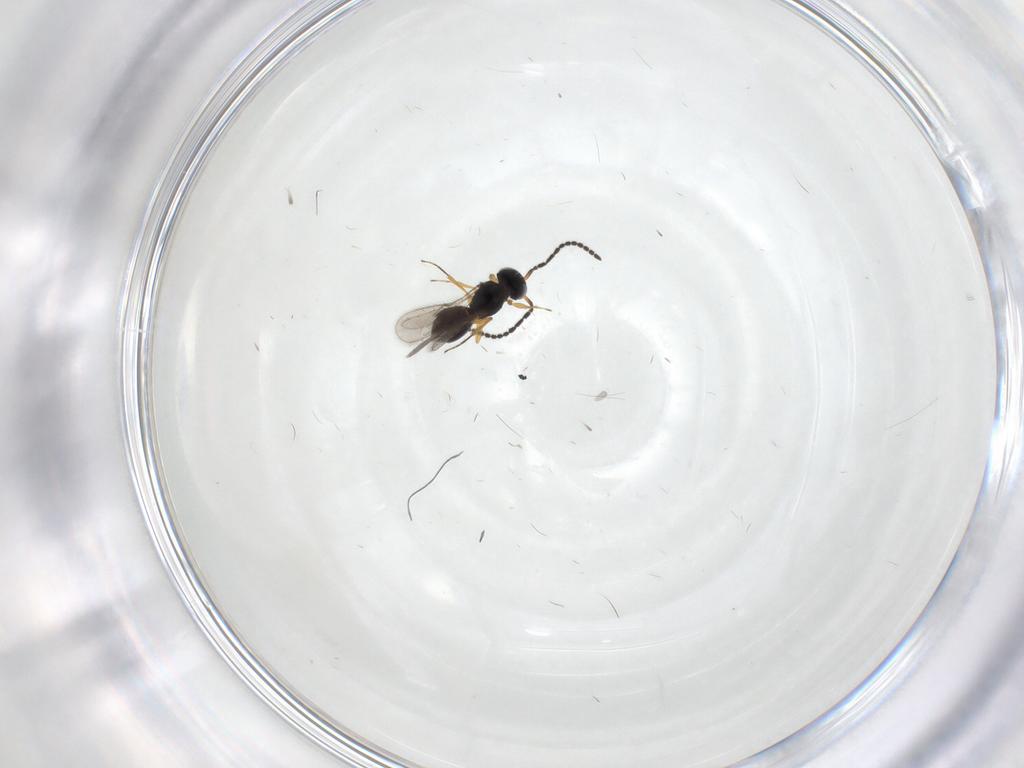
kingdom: Animalia
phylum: Arthropoda
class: Insecta
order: Hymenoptera
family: Scelionidae
